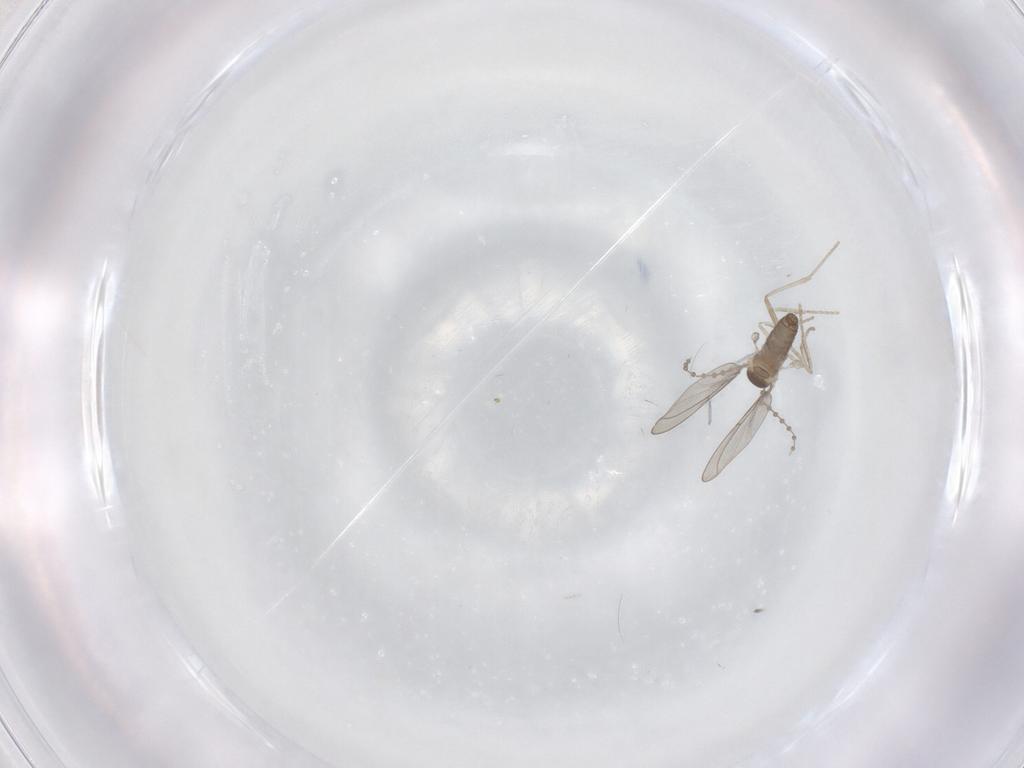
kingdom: Animalia
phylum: Arthropoda
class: Insecta
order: Diptera
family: Cecidomyiidae
